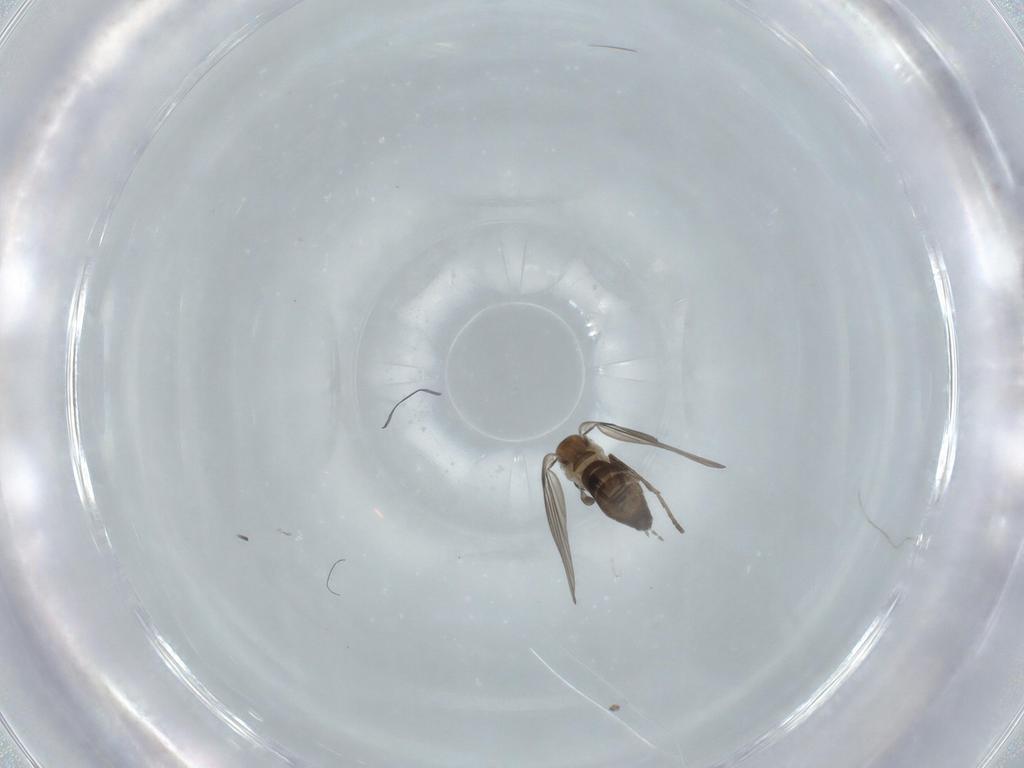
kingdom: Animalia
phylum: Arthropoda
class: Insecta
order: Diptera
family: Psychodidae
